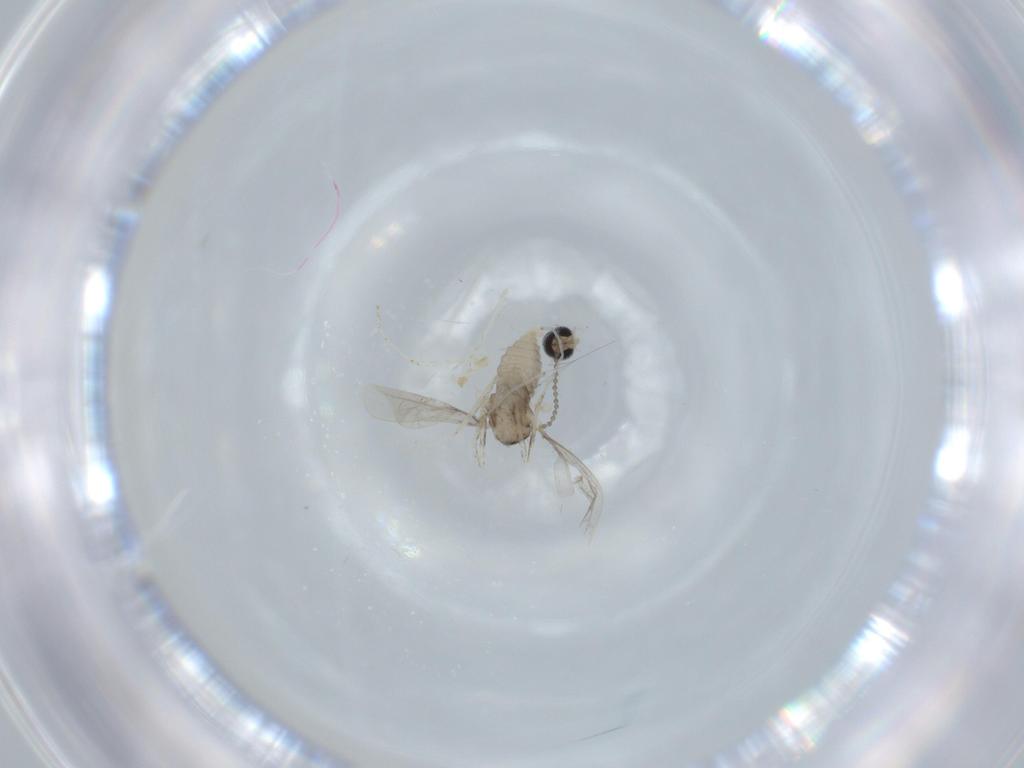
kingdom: Animalia
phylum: Arthropoda
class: Insecta
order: Diptera
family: Cecidomyiidae
